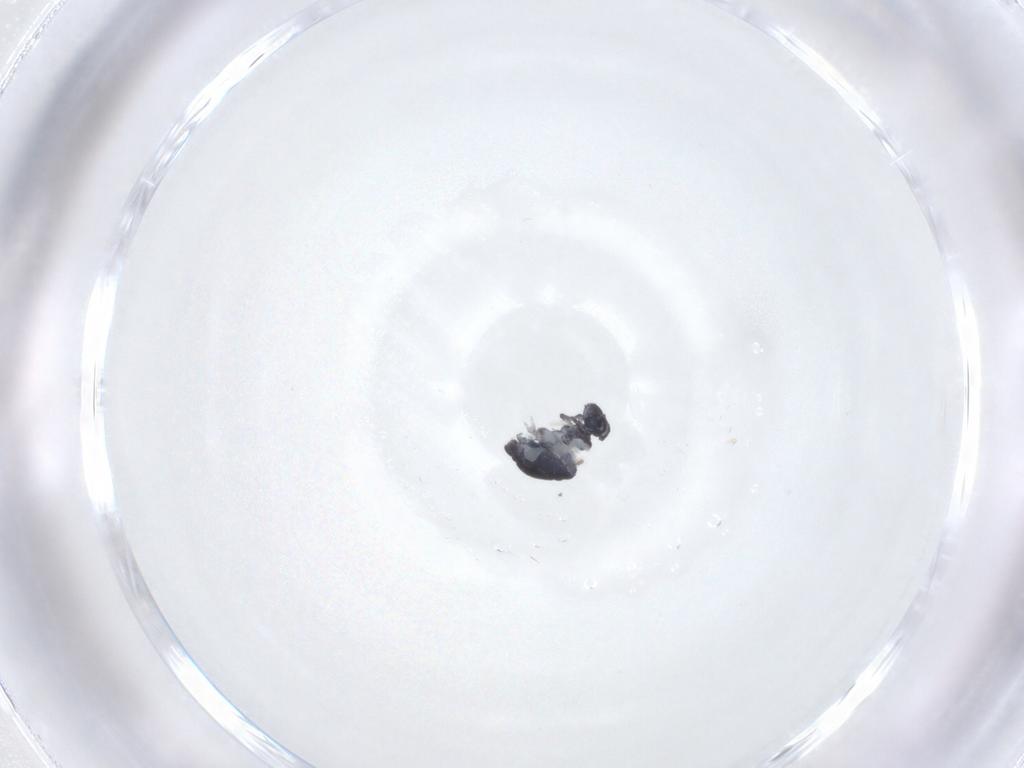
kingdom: Animalia
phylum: Arthropoda
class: Collembola
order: Symphypleona
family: Katiannidae
